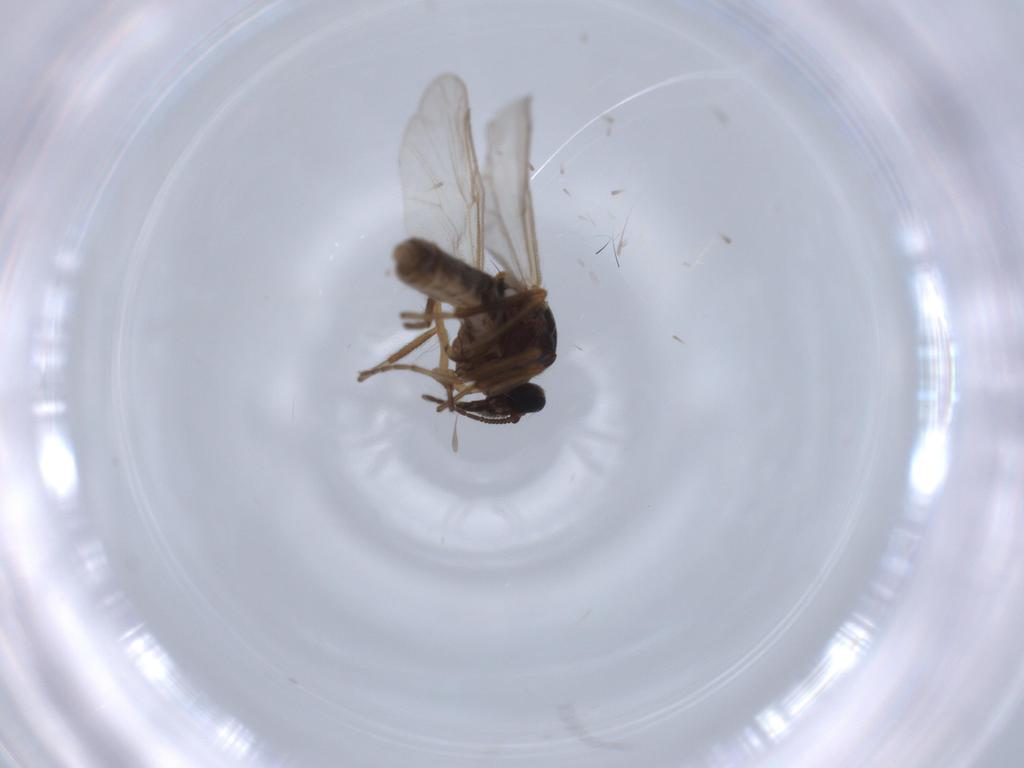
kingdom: Animalia
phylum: Arthropoda
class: Insecta
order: Diptera
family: Ceratopogonidae
